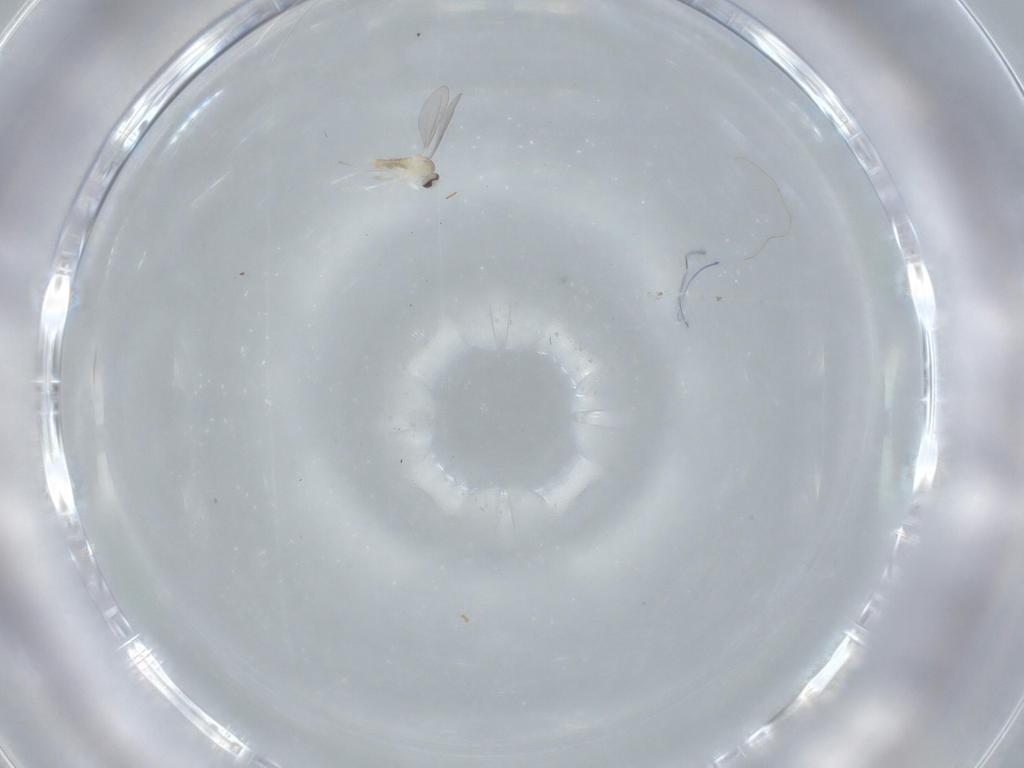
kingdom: Animalia
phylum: Arthropoda
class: Insecta
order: Diptera
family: Cecidomyiidae
